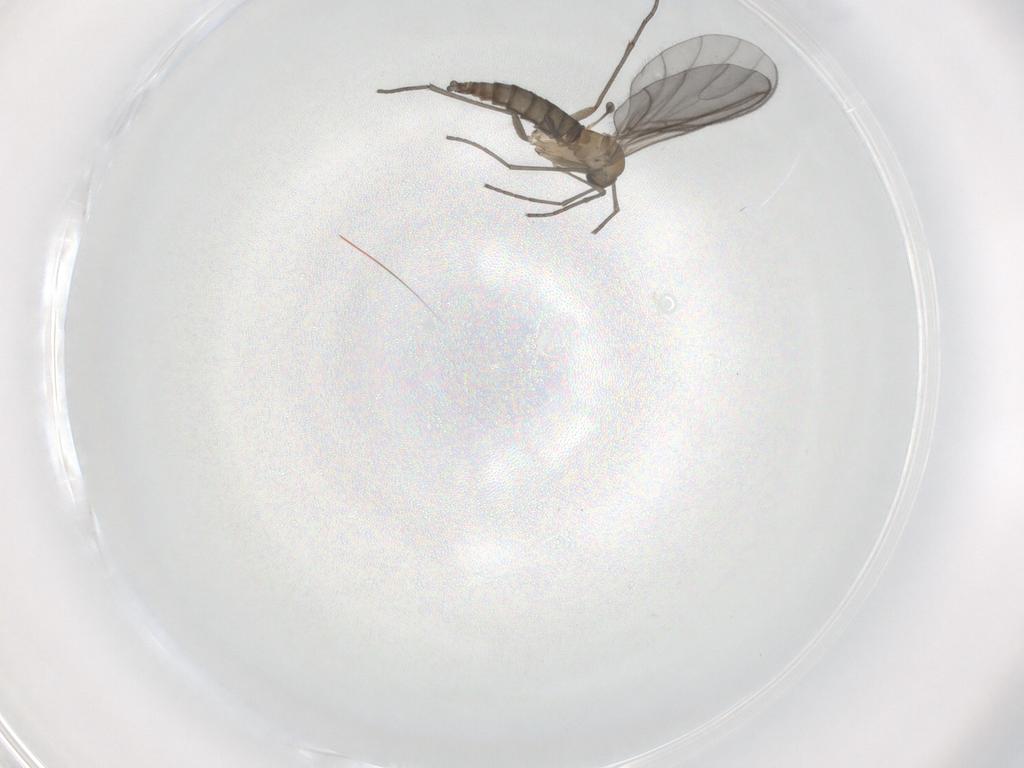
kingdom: Animalia
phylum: Arthropoda
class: Insecta
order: Diptera
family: Sciaridae
